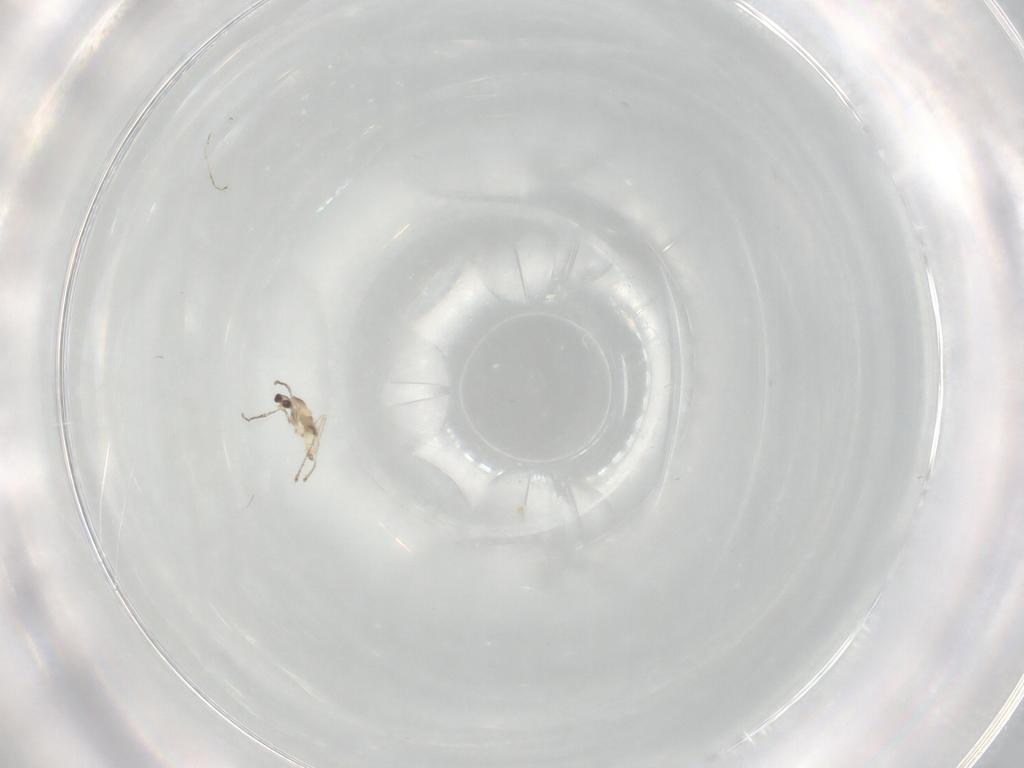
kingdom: Animalia
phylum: Arthropoda
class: Insecta
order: Diptera
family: Cecidomyiidae
